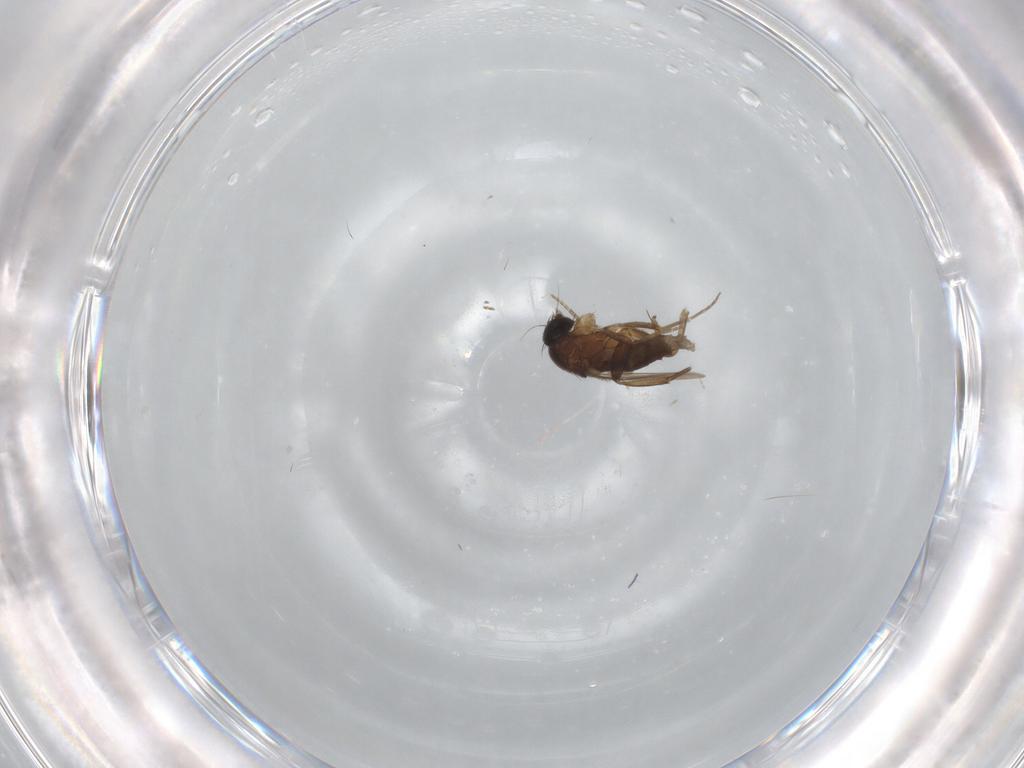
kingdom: Animalia
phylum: Arthropoda
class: Insecta
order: Diptera
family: Phoridae
